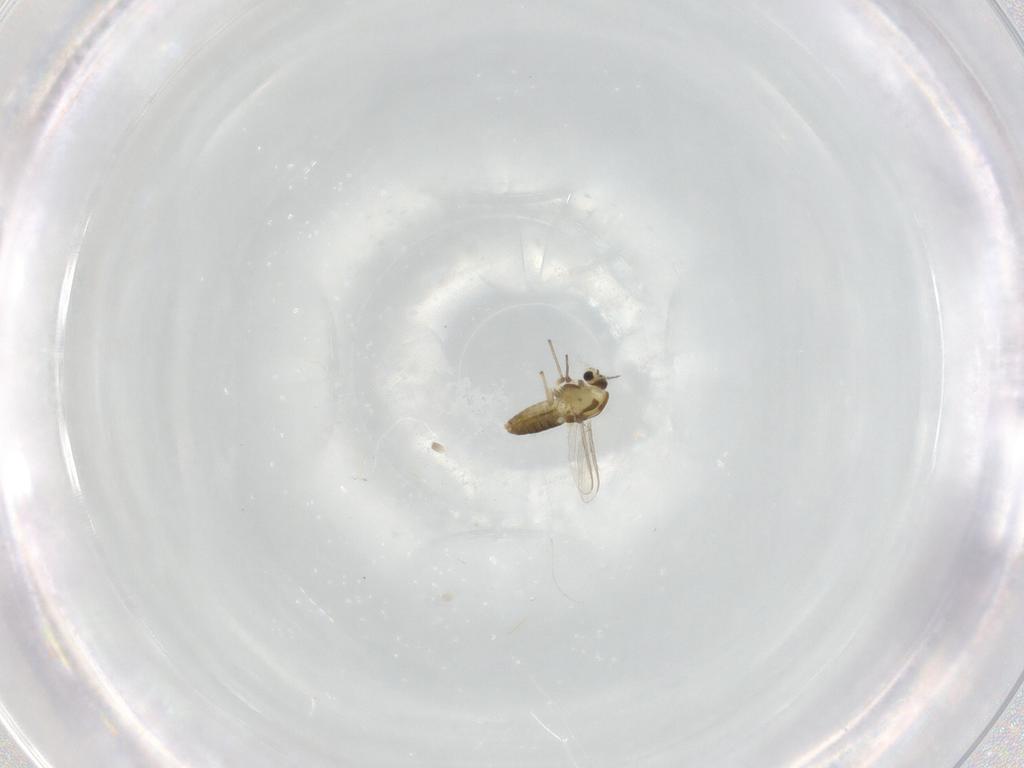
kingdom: Animalia
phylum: Arthropoda
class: Insecta
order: Diptera
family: Chironomidae
